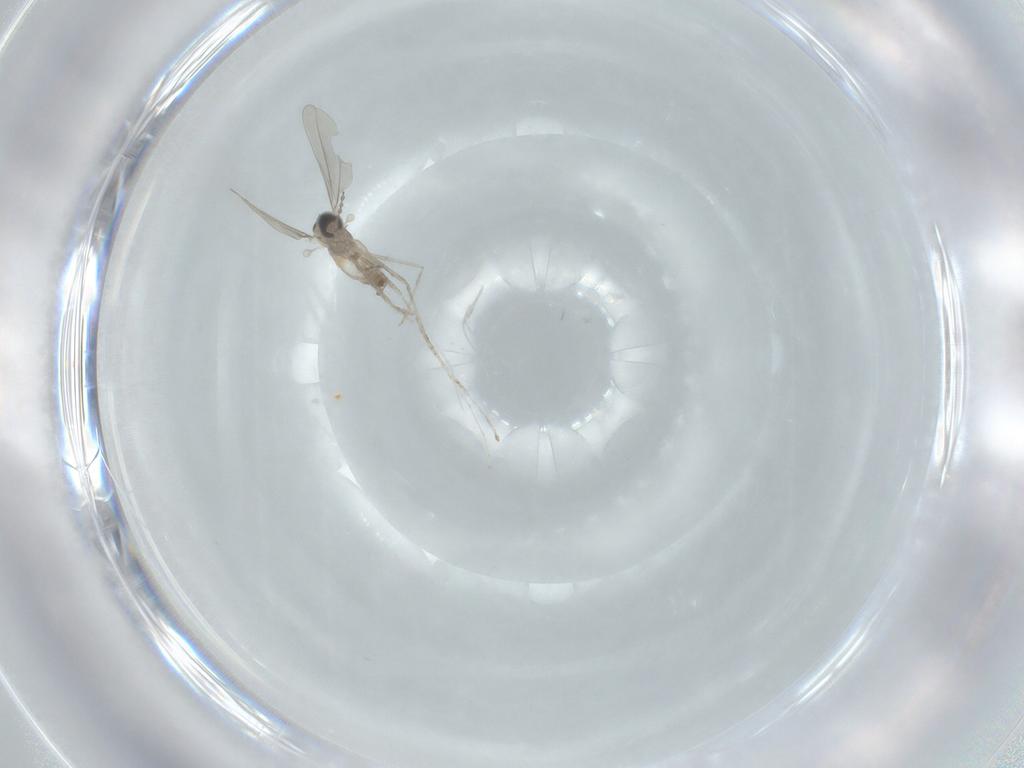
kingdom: Animalia
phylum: Arthropoda
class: Insecta
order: Diptera
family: Cecidomyiidae
